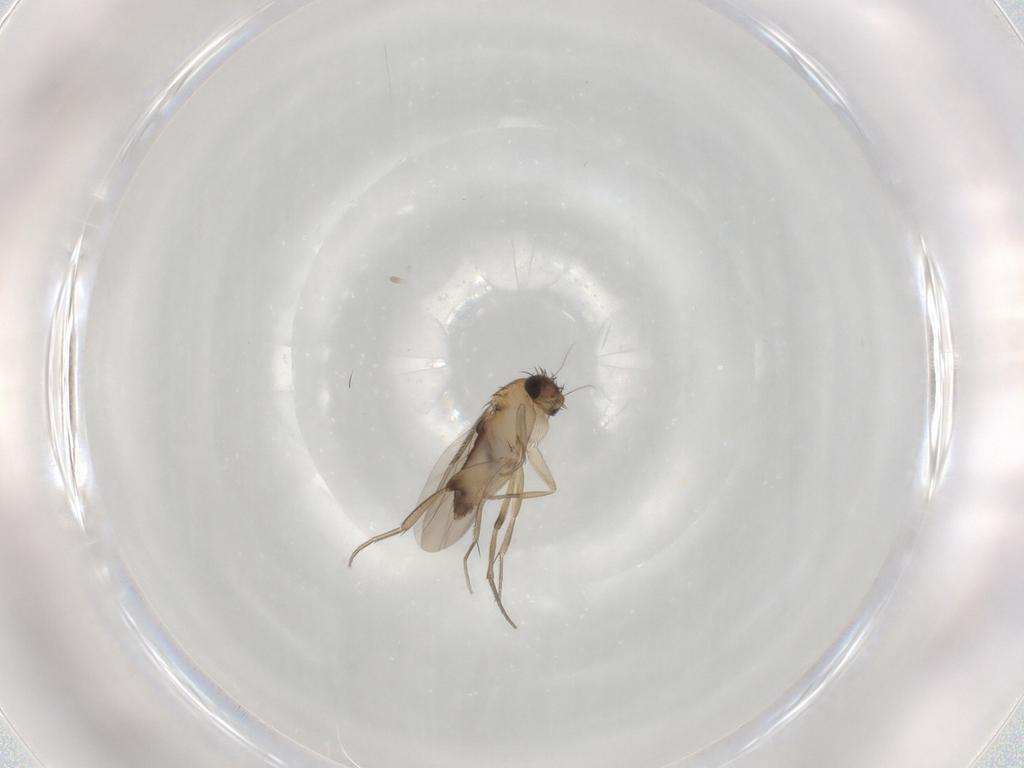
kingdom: Animalia
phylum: Arthropoda
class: Insecta
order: Diptera
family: Phoridae
